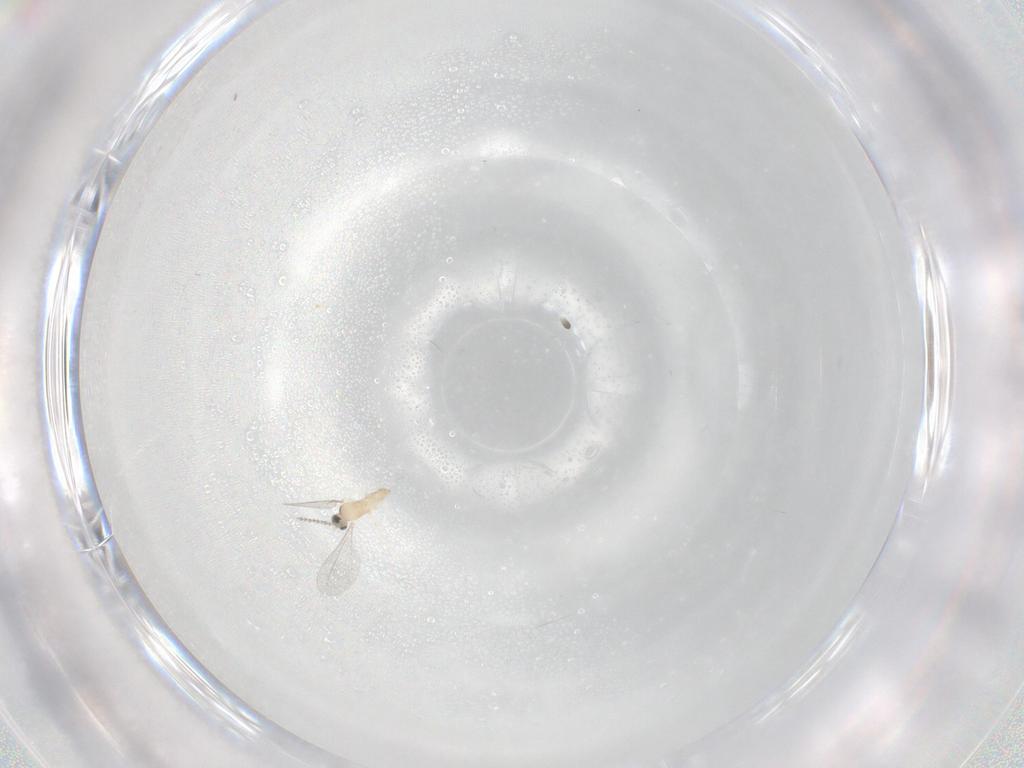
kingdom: Animalia
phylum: Arthropoda
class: Insecta
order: Diptera
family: Cecidomyiidae
